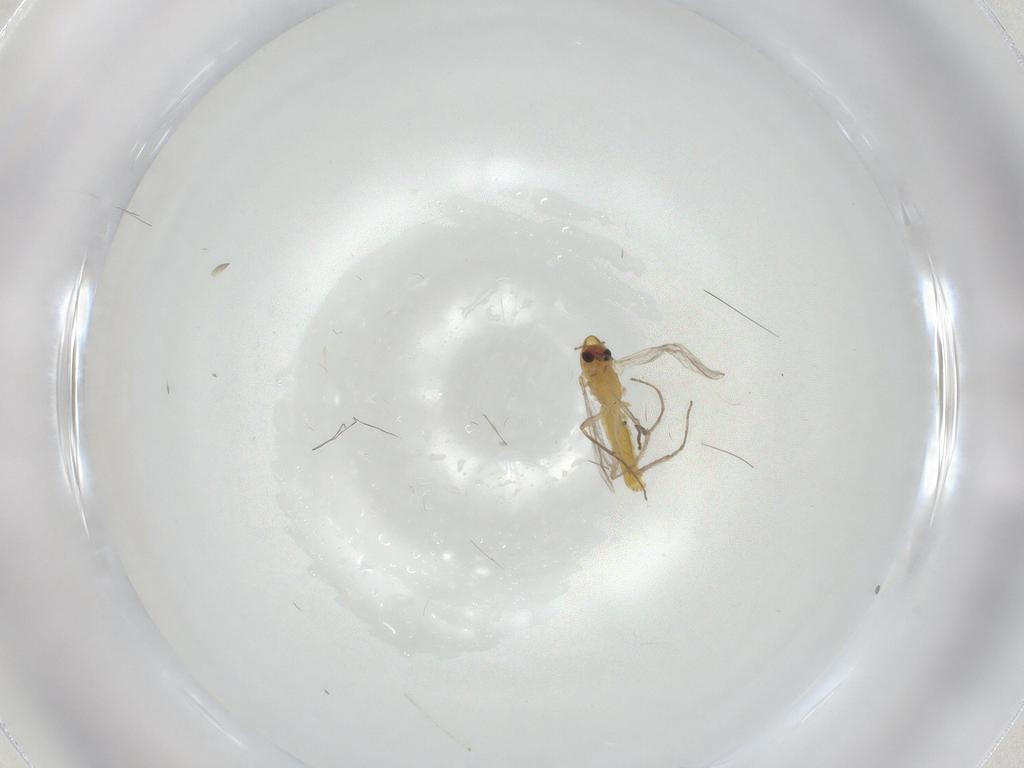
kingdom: Animalia
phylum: Arthropoda
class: Insecta
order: Diptera
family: Chironomidae
